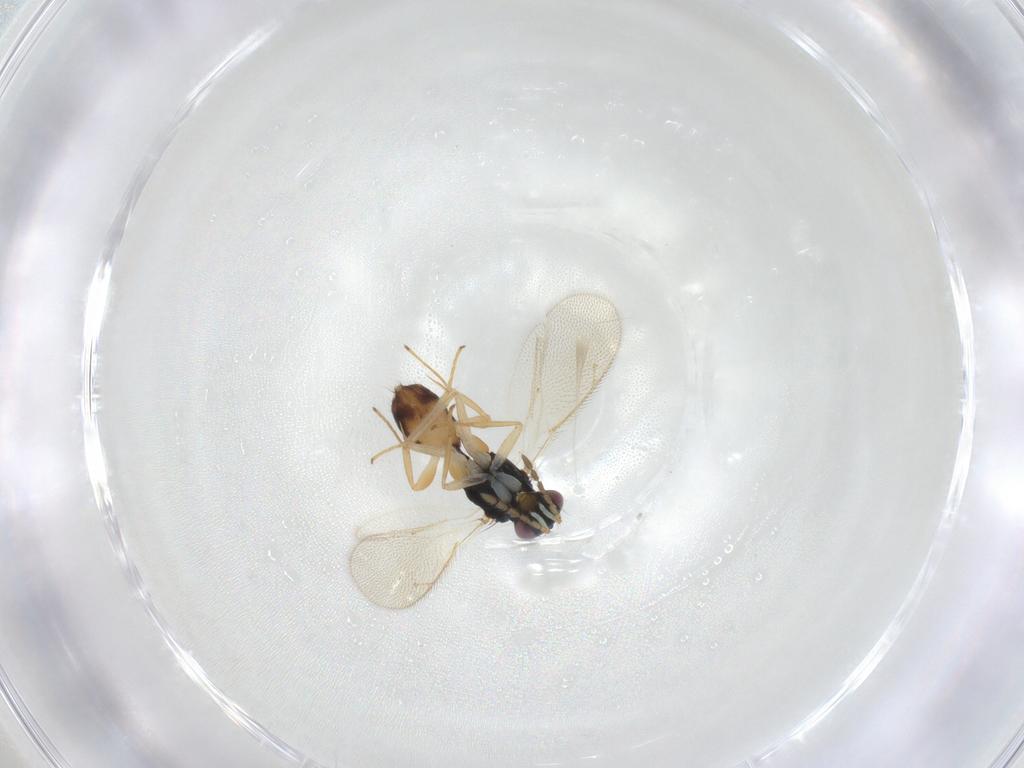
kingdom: Animalia
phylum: Arthropoda
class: Insecta
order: Hymenoptera
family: Eulophidae
